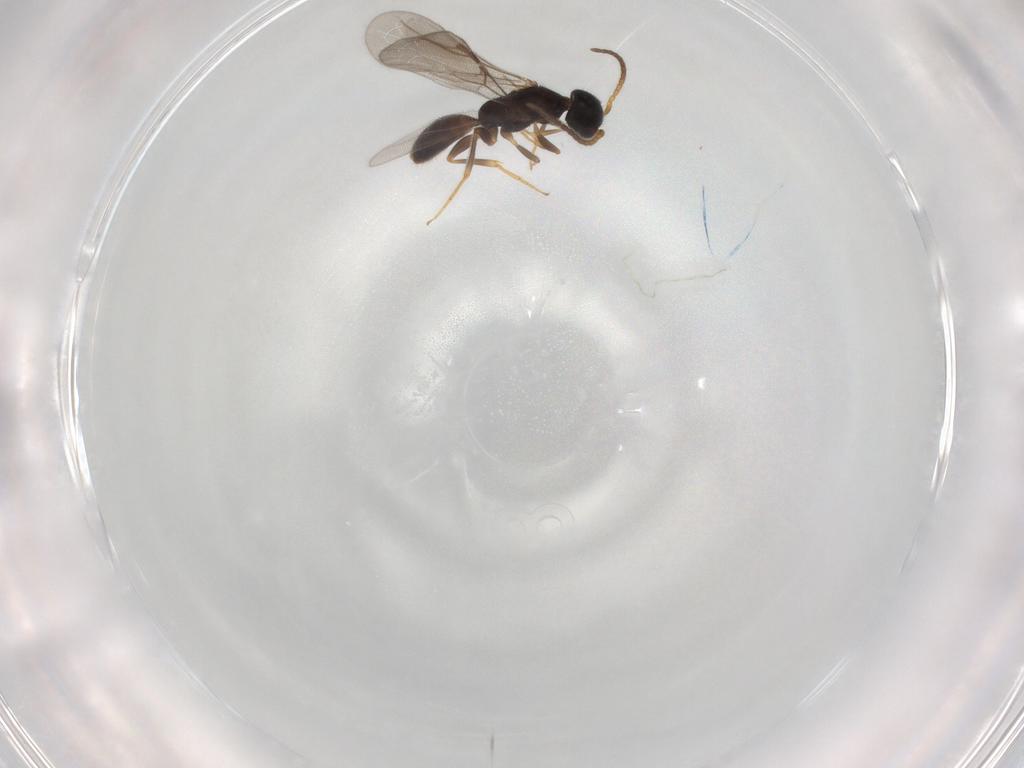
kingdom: Animalia
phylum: Arthropoda
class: Insecta
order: Hymenoptera
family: Bethylidae
